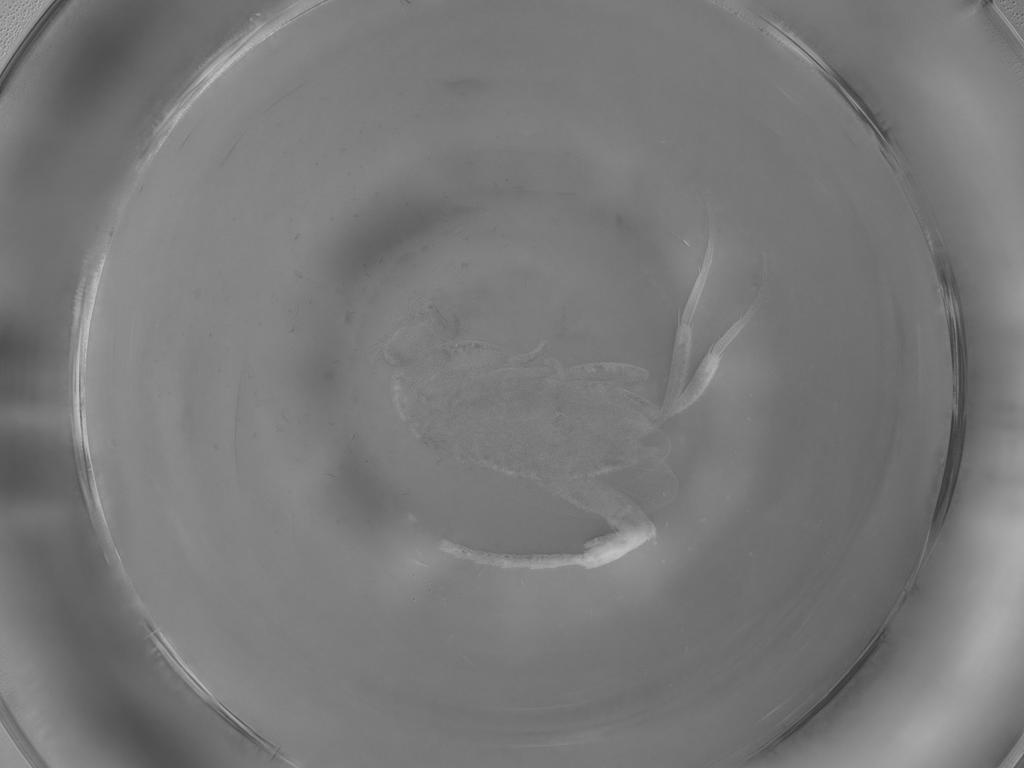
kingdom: Animalia
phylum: Arthropoda
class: Insecta
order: Diptera
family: Phoridae
